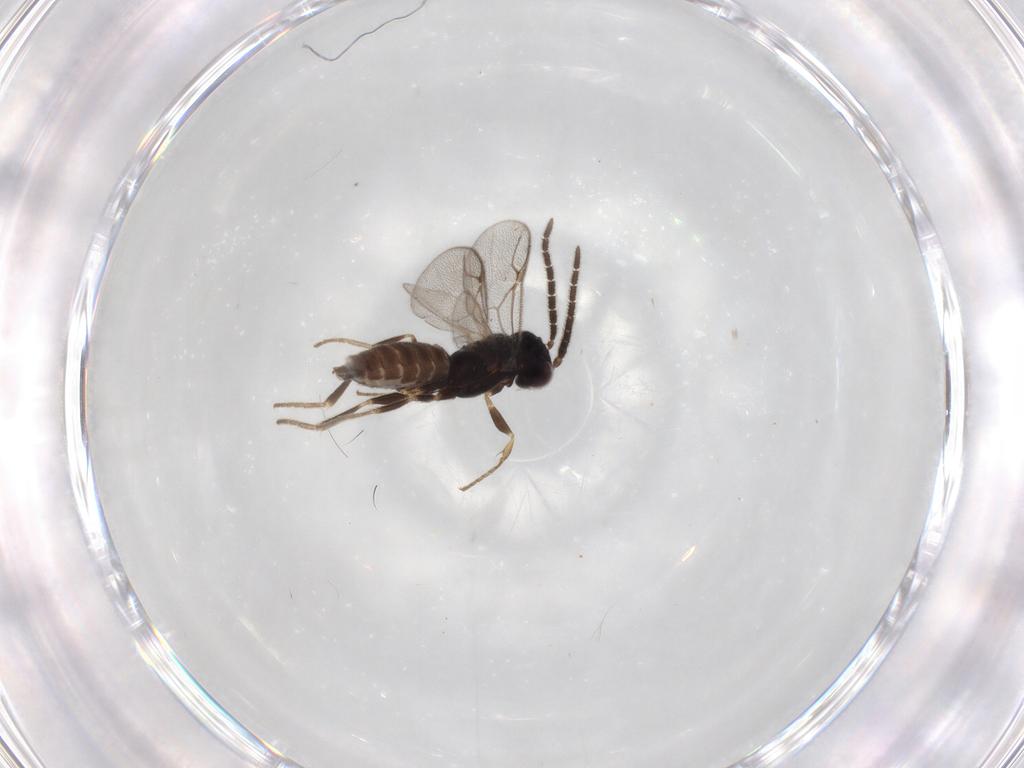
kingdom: Animalia
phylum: Arthropoda
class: Insecta
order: Hymenoptera
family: Dryinidae
